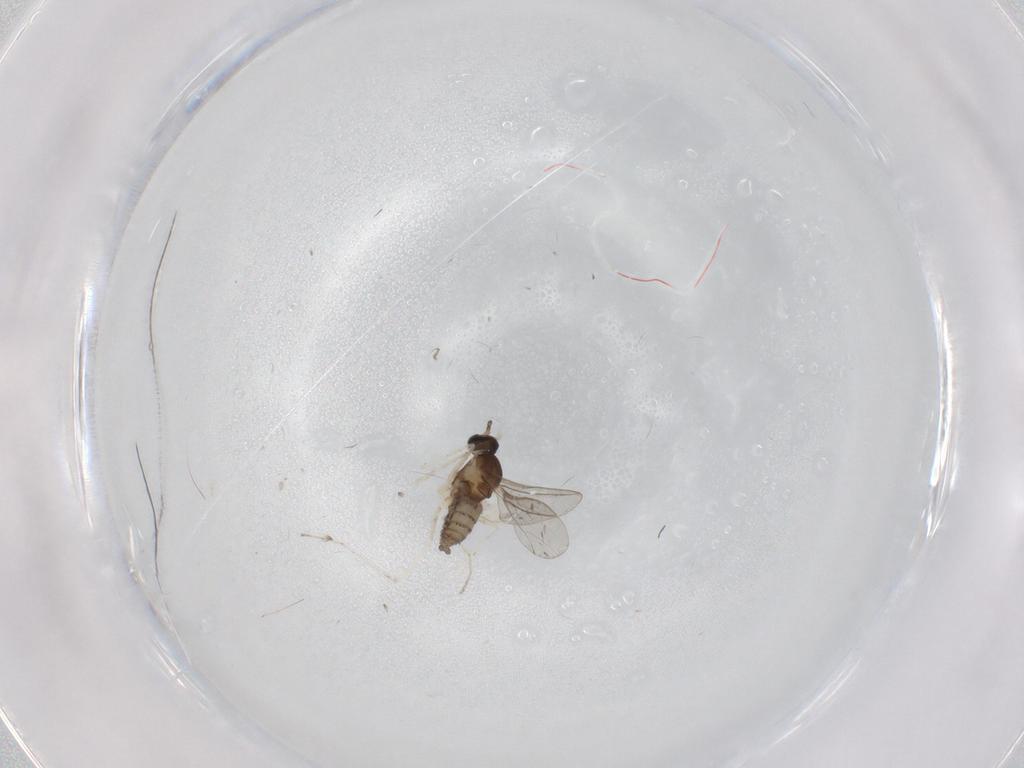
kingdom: Animalia
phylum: Arthropoda
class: Insecta
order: Diptera
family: Cecidomyiidae
